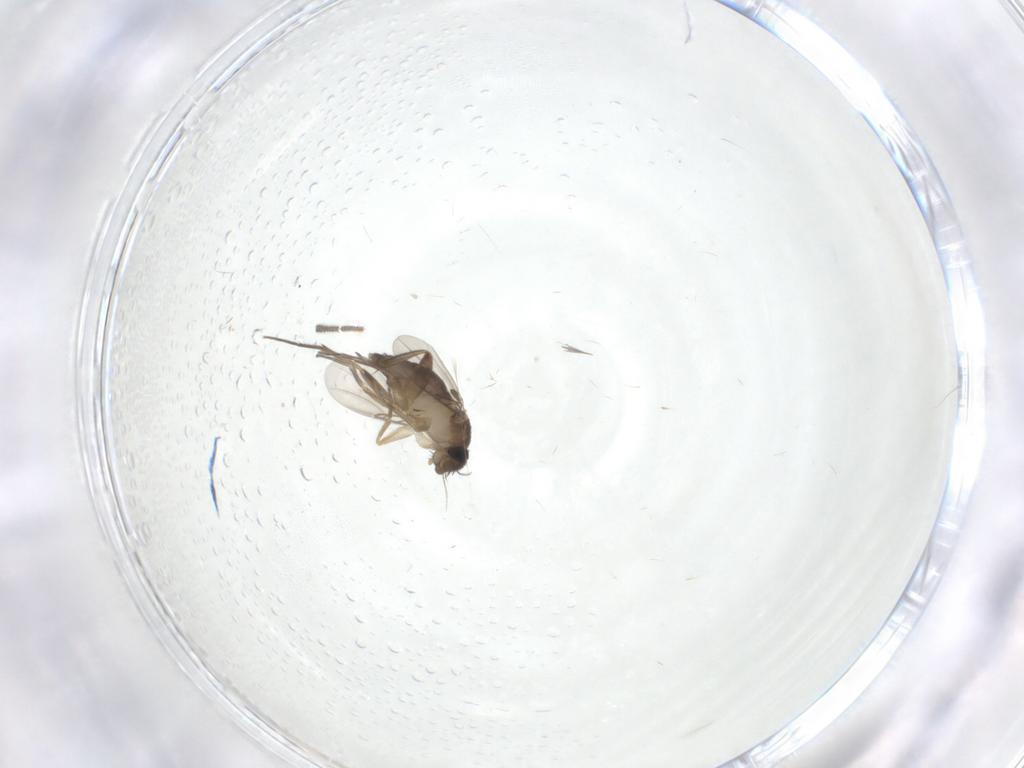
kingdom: Animalia
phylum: Arthropoda
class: Insecta
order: Diptera
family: Phoridae
